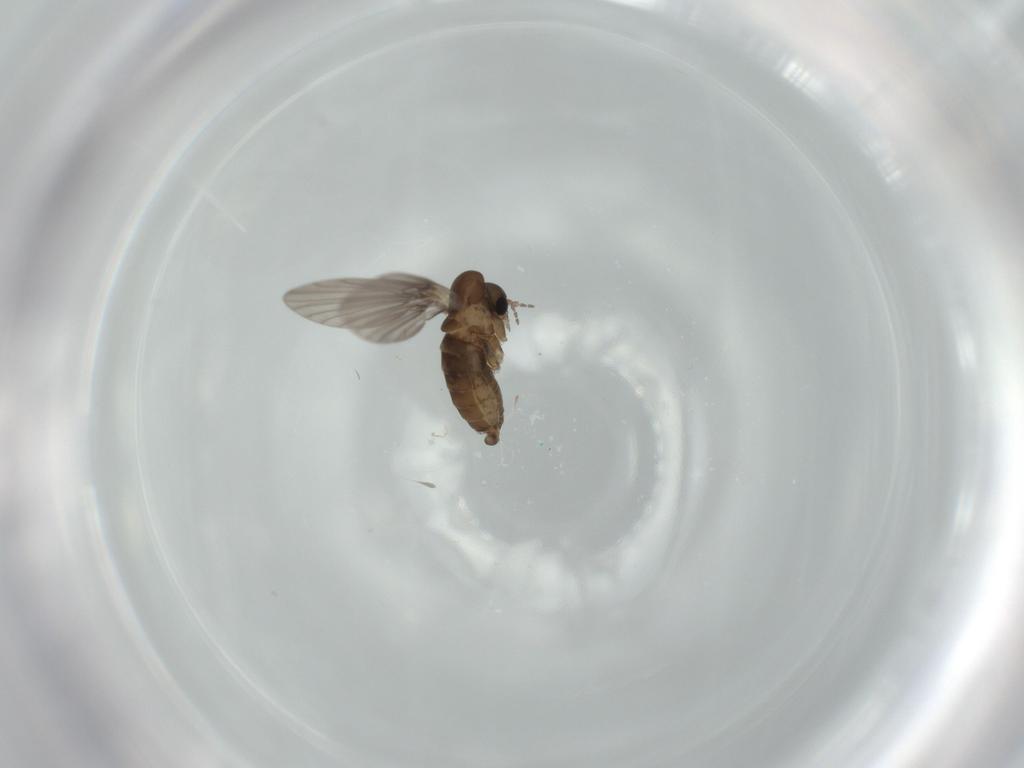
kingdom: Animalia
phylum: Arthropoda
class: Insecta
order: Diptera
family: Psychodidae
